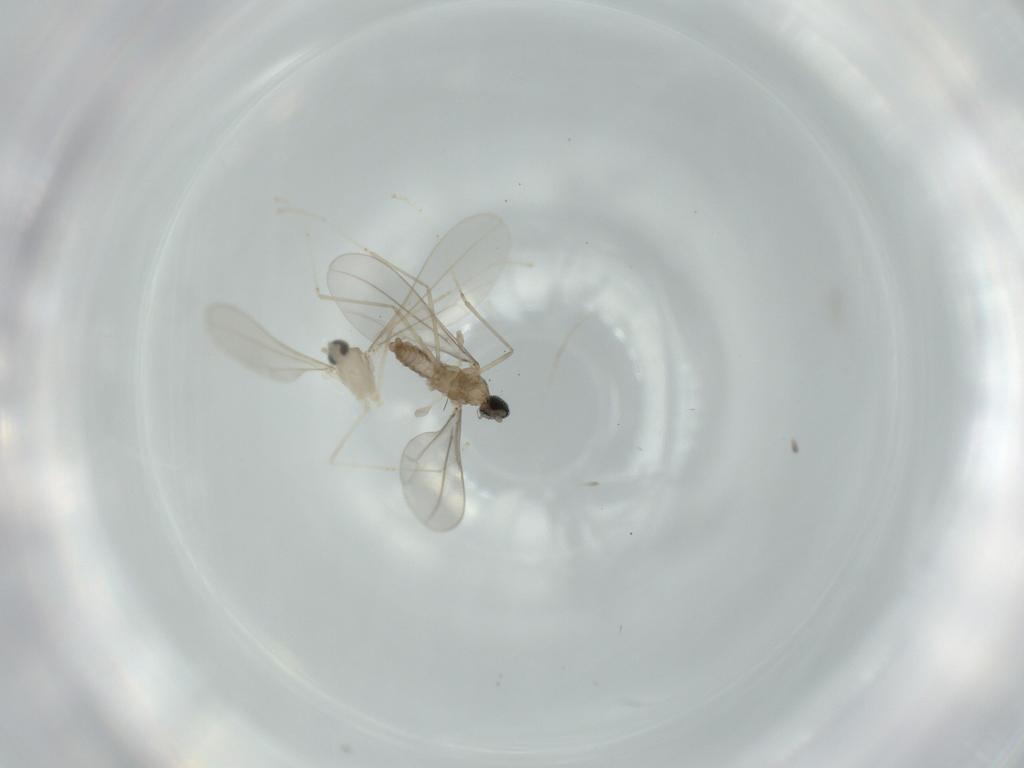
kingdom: Animalia
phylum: Arthropoda
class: Insecta
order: Diptera
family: Cecidomyiidae
